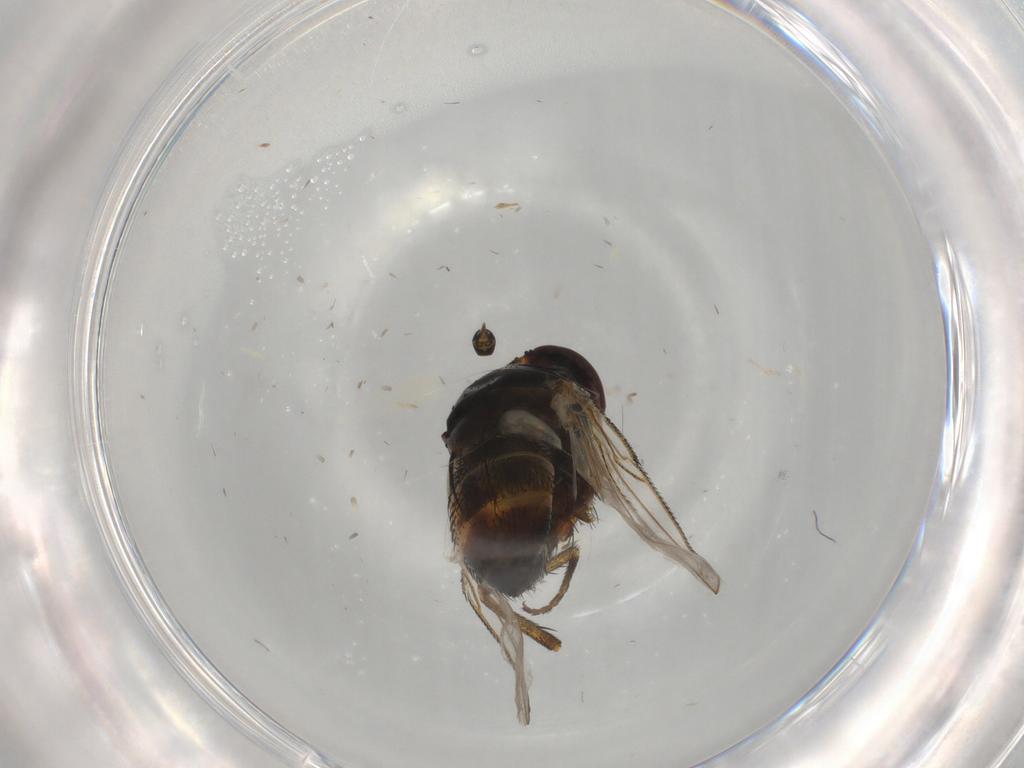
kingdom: Animalia
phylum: Arthropoda
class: Insecta
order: Diptera
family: Ceratopogonidae
